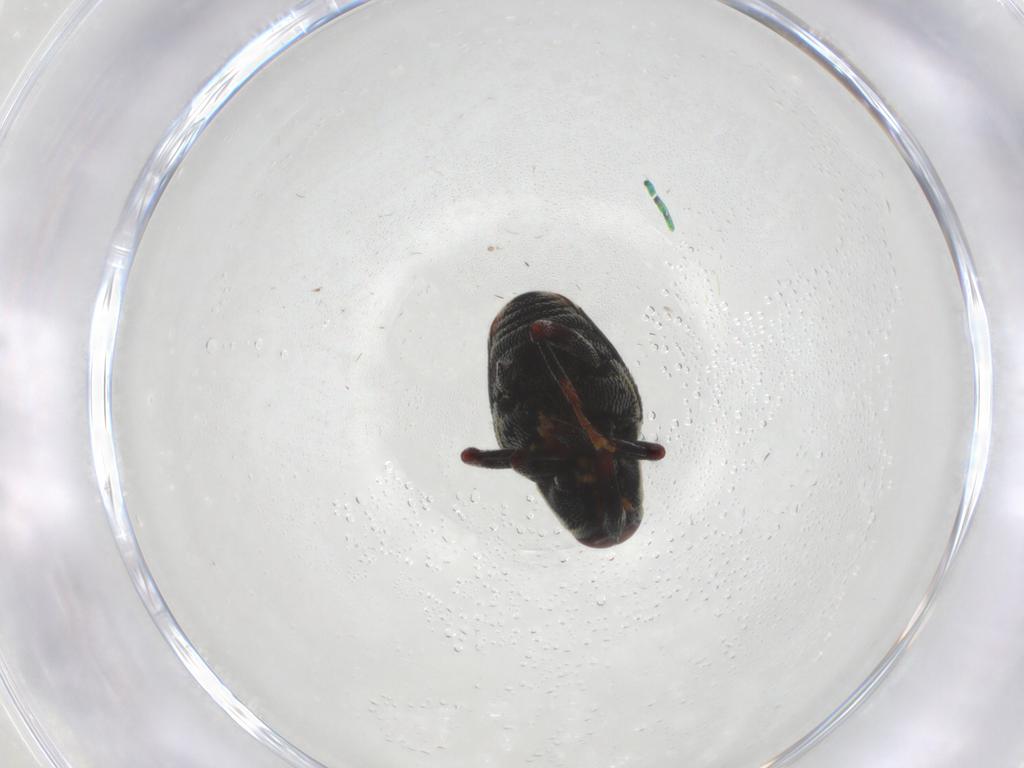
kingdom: Animalia
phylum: Arthropoda
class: Insecta
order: Coleoptera
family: Curculionidae
